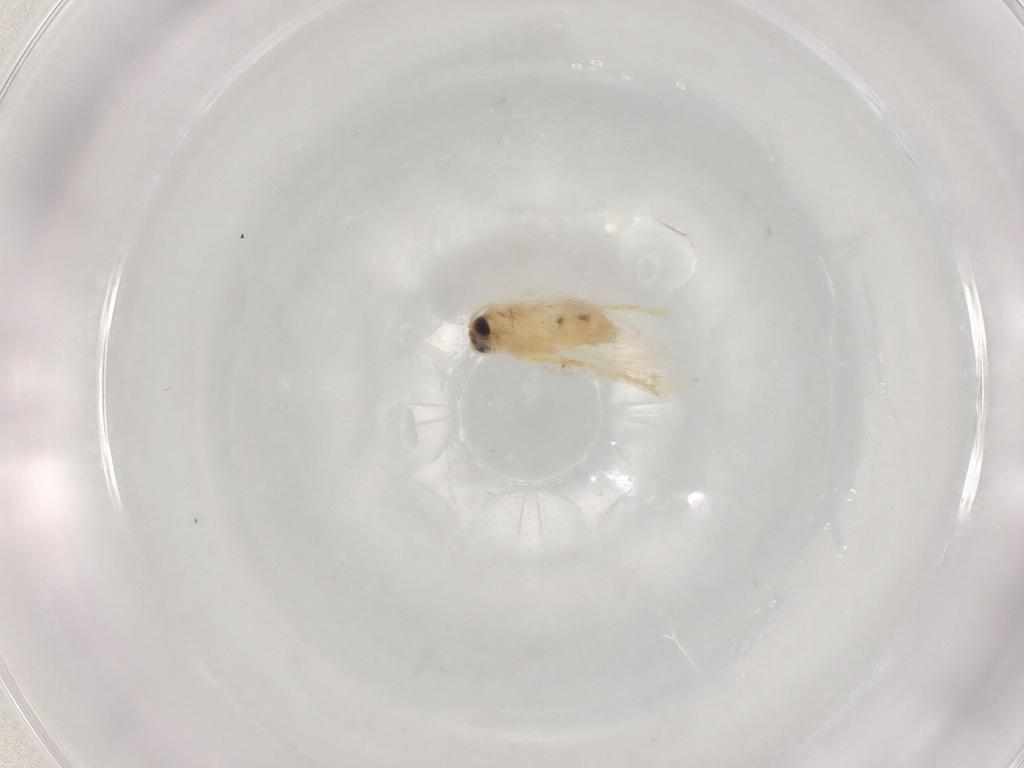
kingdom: Animalia
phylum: Arthropoda
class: Insecta
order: Lepidoptera
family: Nepticulidae
